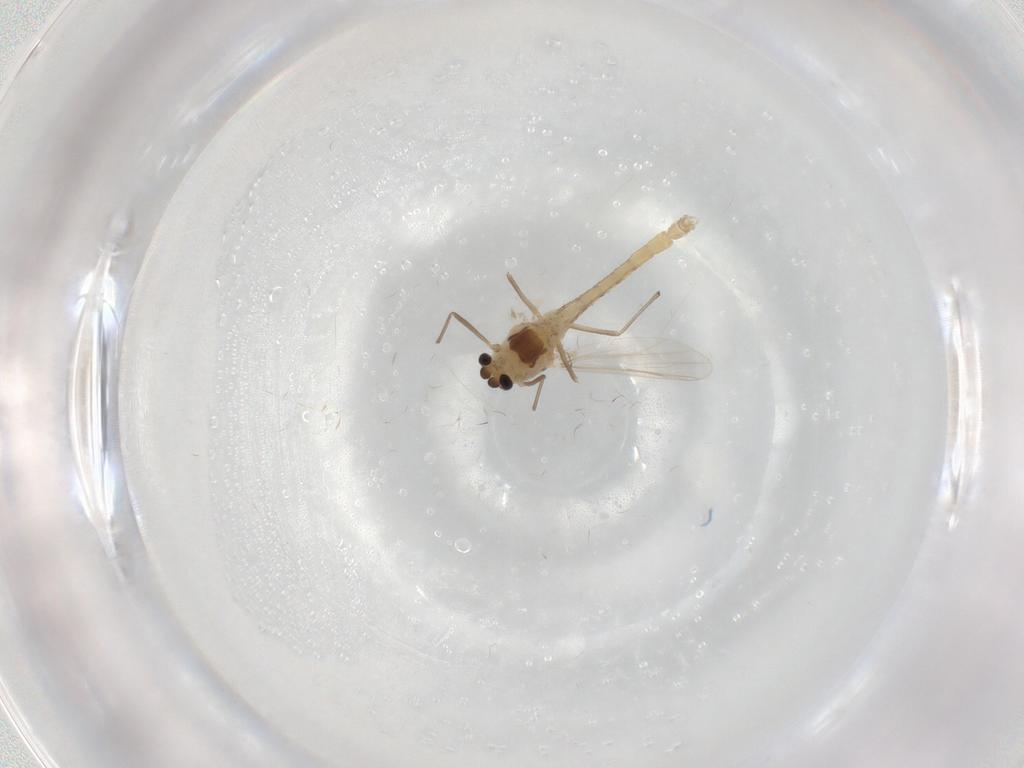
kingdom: Animalia
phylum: Arthropoda
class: Insecta
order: Diptera
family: Chironomidae
